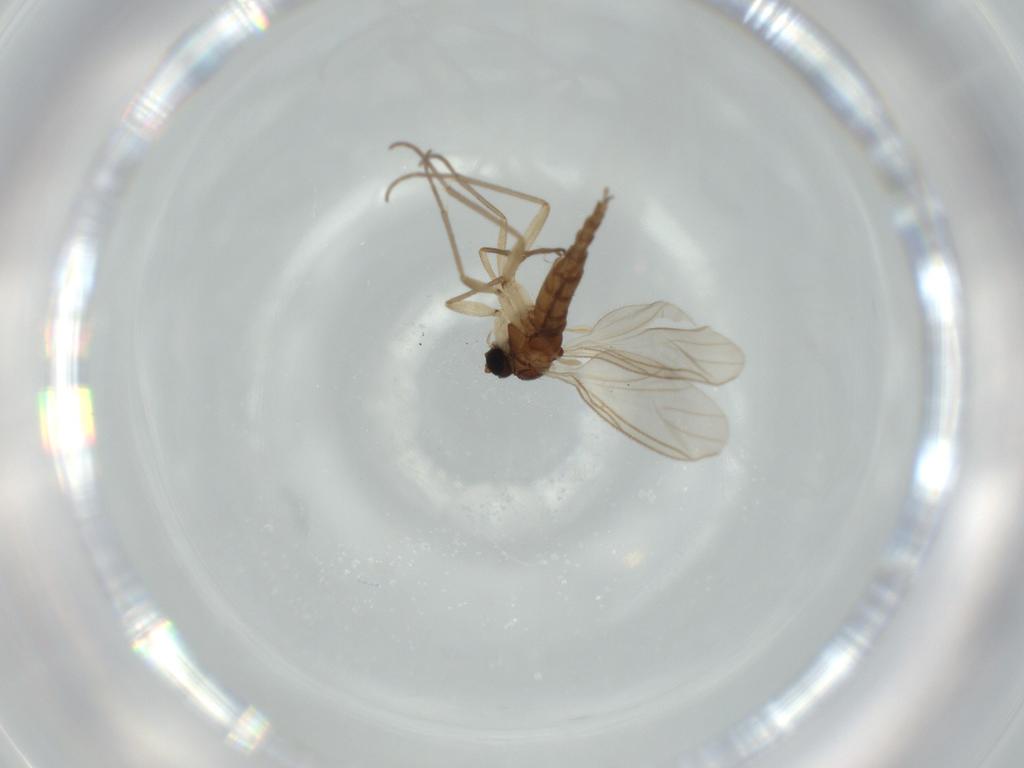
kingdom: Animalia
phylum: Arthropoda
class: Insecta
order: Diptera
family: Sciaridae
